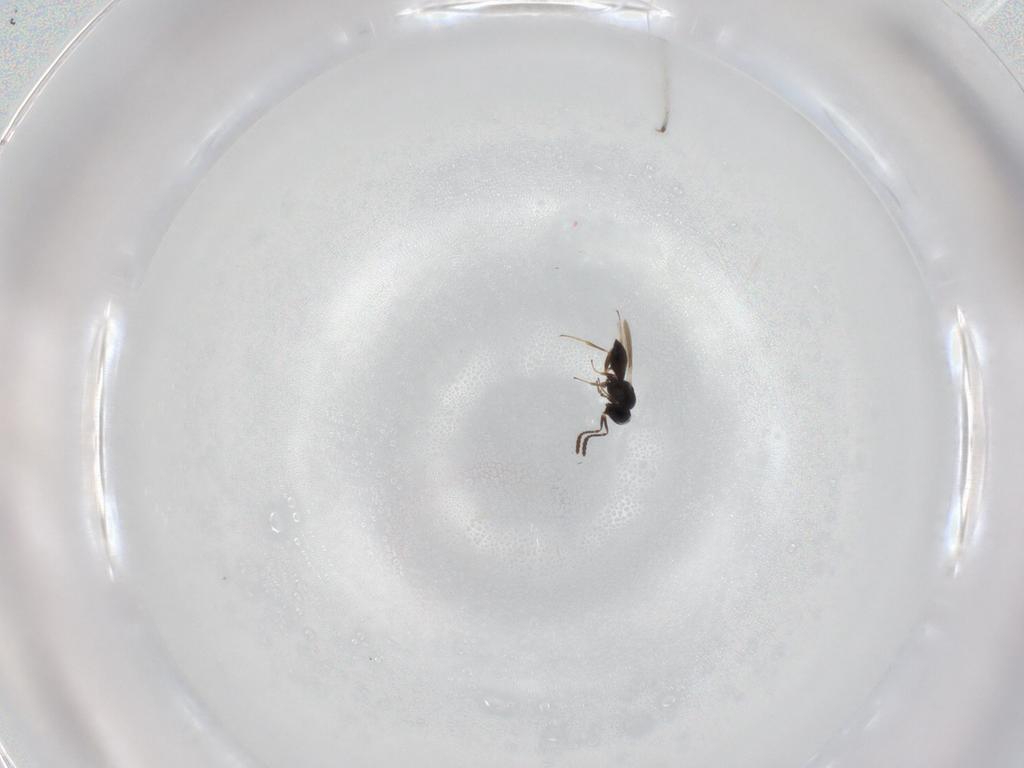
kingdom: Animalia
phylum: Arthropoda
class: Insecta
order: Hymenoptera
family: Scelionidae
